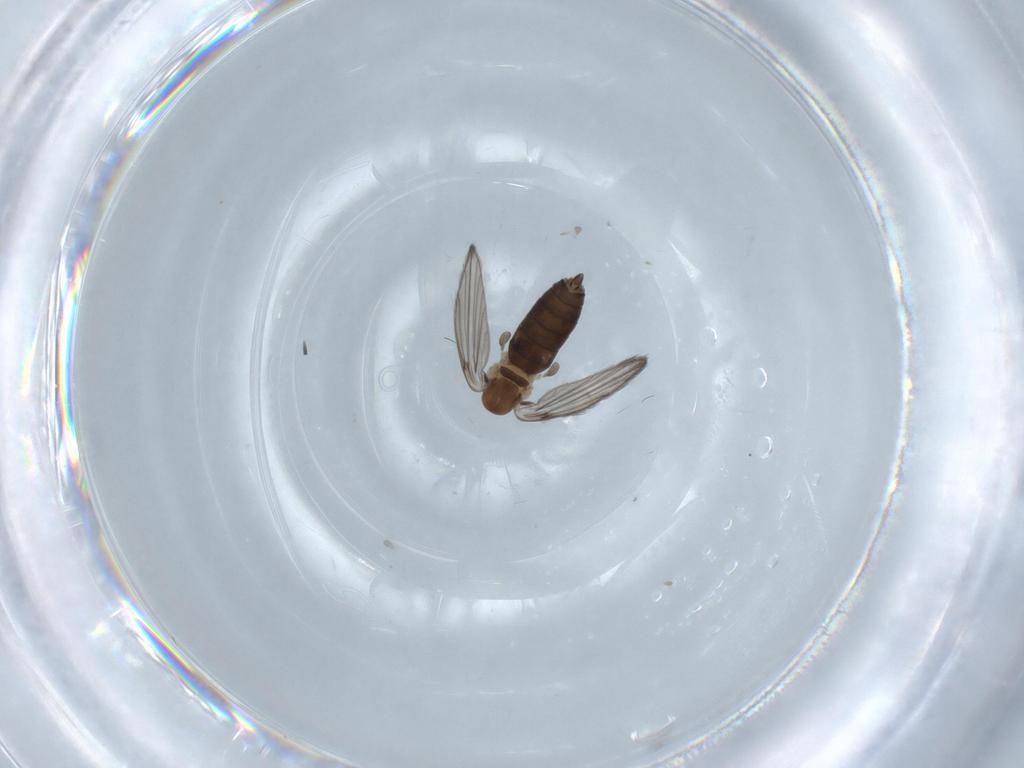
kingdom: Animalia
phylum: Arthropoda
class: Insecta
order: Diptera
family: Psychodidae
